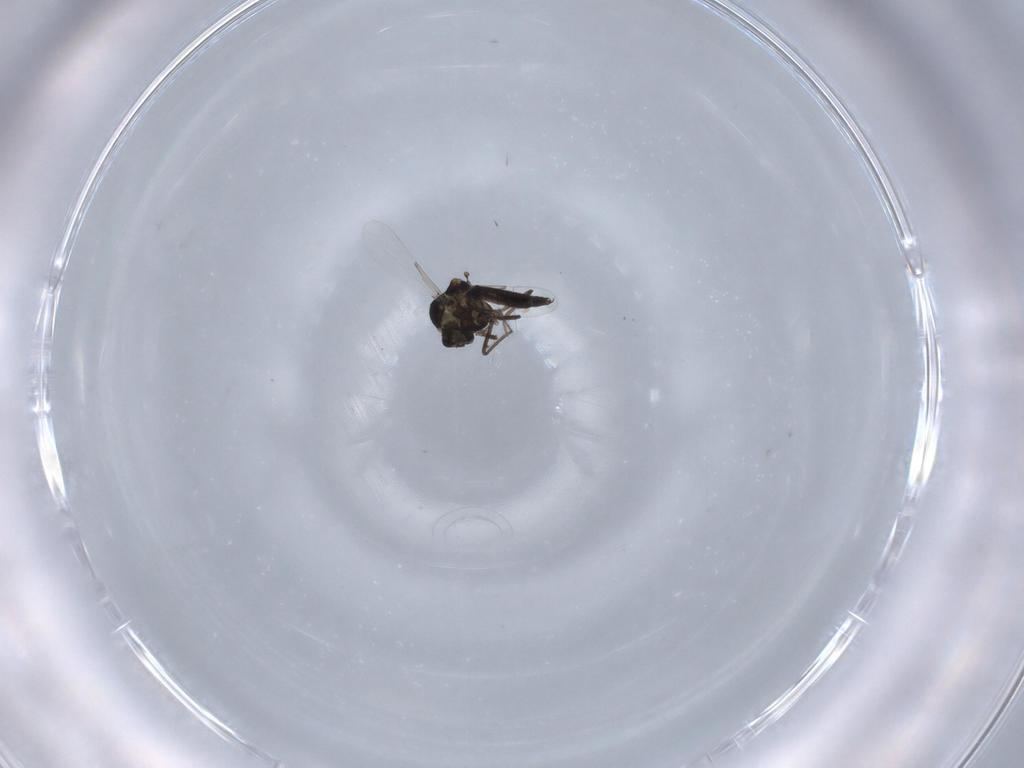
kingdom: Animalia
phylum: Arthropoda
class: Insecta
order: Diptera
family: Ceratopogonidae
